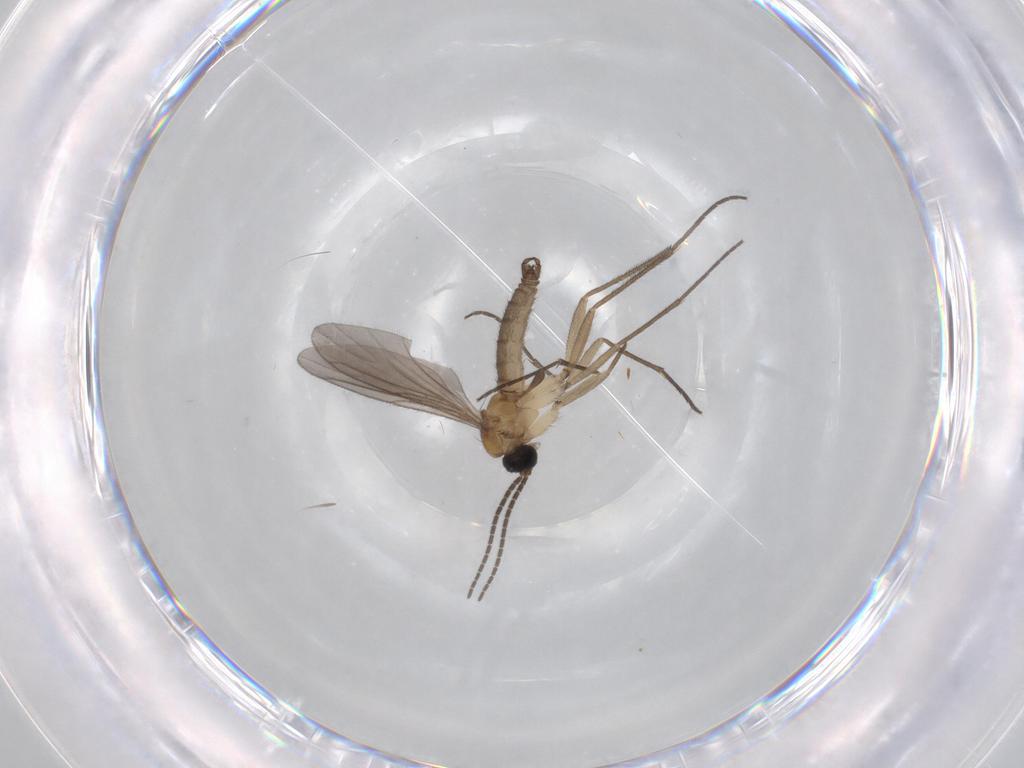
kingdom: Animalia
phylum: Arthropoda
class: Insecta
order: Diptera
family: Sciaridae
